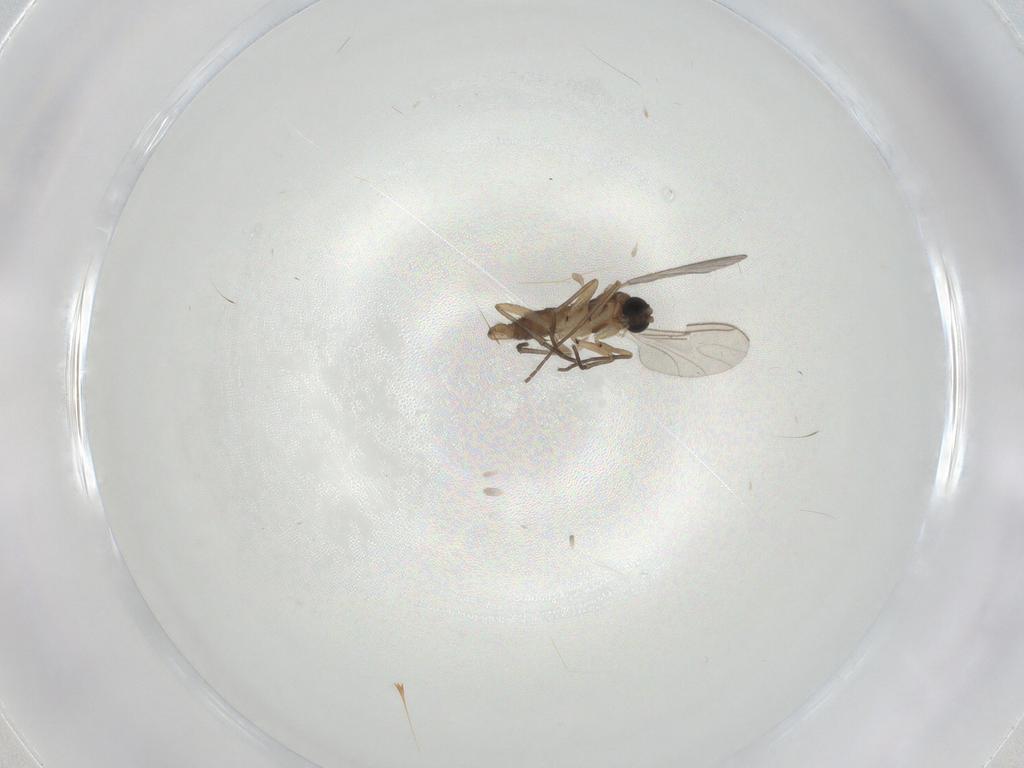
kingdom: Animalia
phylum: Arthropoda
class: Insecta
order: Diptera
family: Sciaridae
